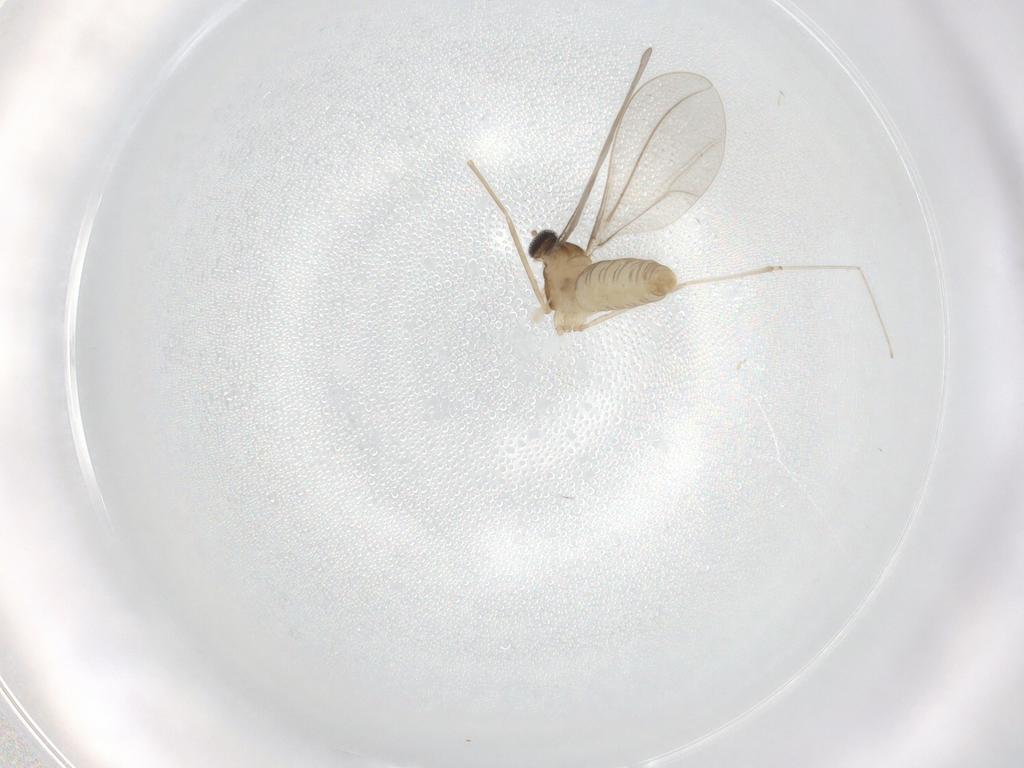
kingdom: Animalia
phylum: Arthropoda
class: Insecta
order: Diptera
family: Cecidomyiidae
